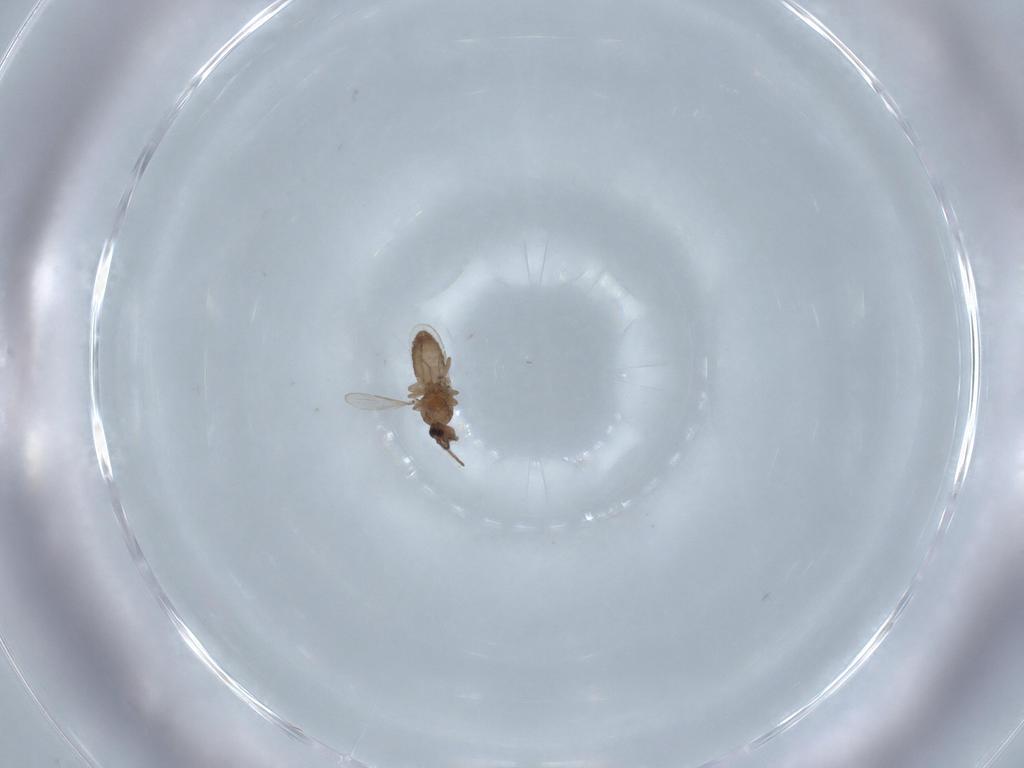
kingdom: Animalia
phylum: Arthropoda
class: Insecta
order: Diptera
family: Ceratopogonidae
